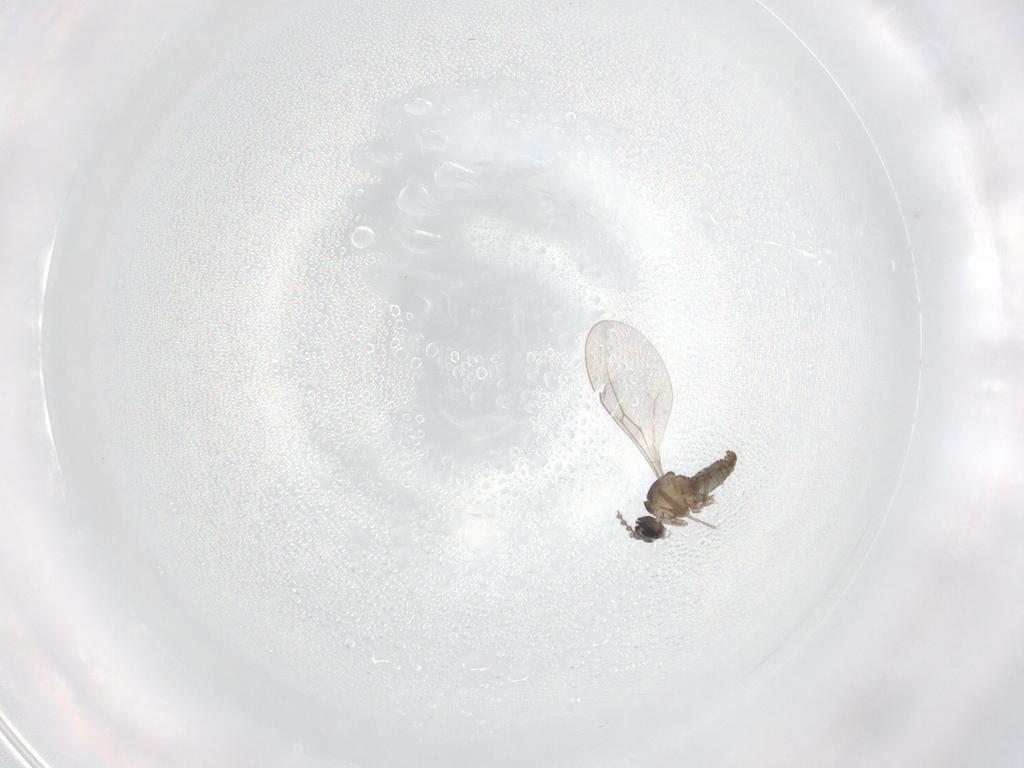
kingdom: Animalia
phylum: Arthropoda
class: Insecta
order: Diptera
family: Cecidomyiidae
